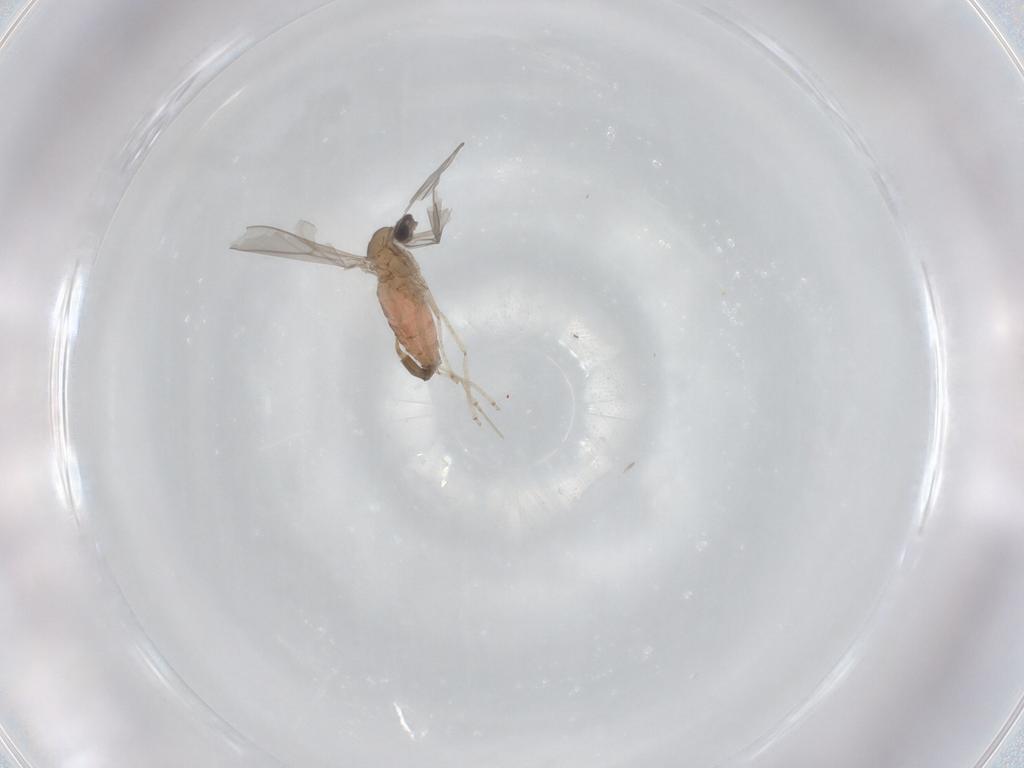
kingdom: Animalia
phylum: Arthropoda
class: Insecta
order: Diptera
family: Cecidomyiidae
